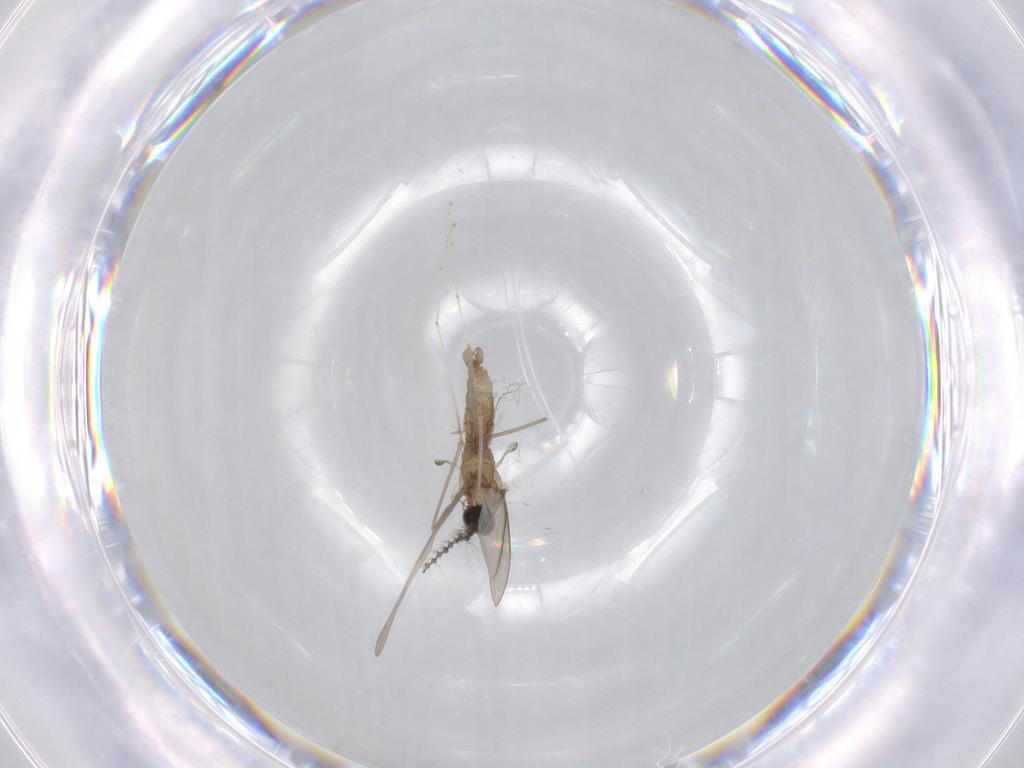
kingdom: Animalia
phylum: Arthropoda
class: Insecta
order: Diptera
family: Cecidomyiidae
